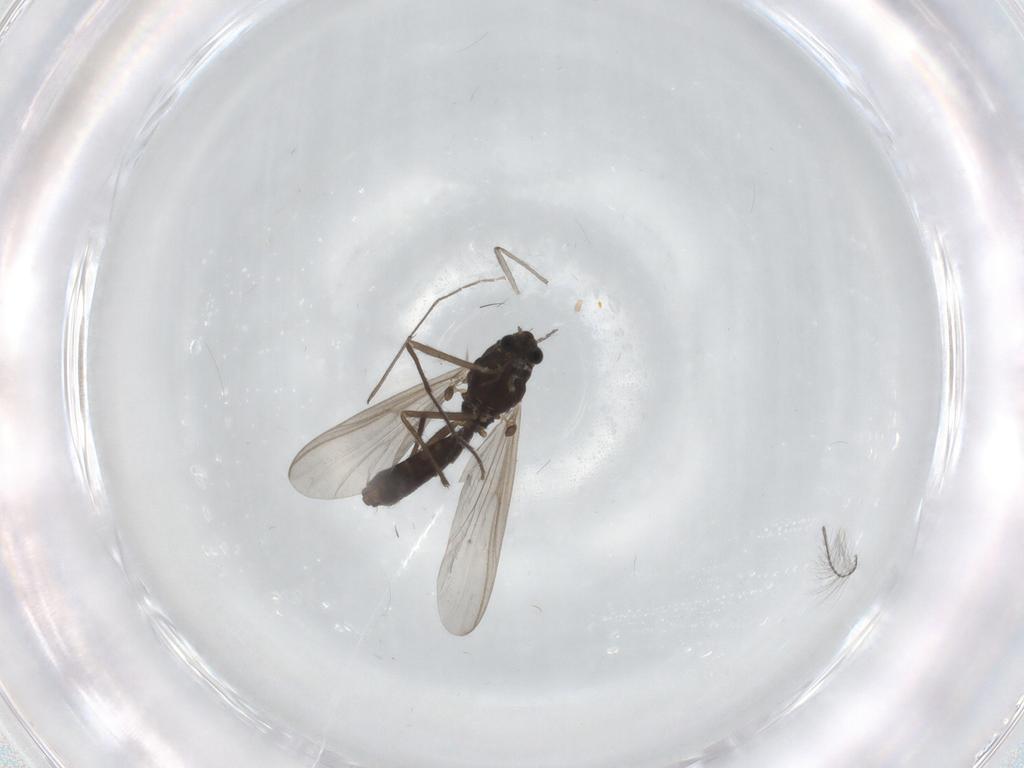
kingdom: Animalia
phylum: Arthropoda
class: Insecta
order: Diptera
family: Chironomidae
